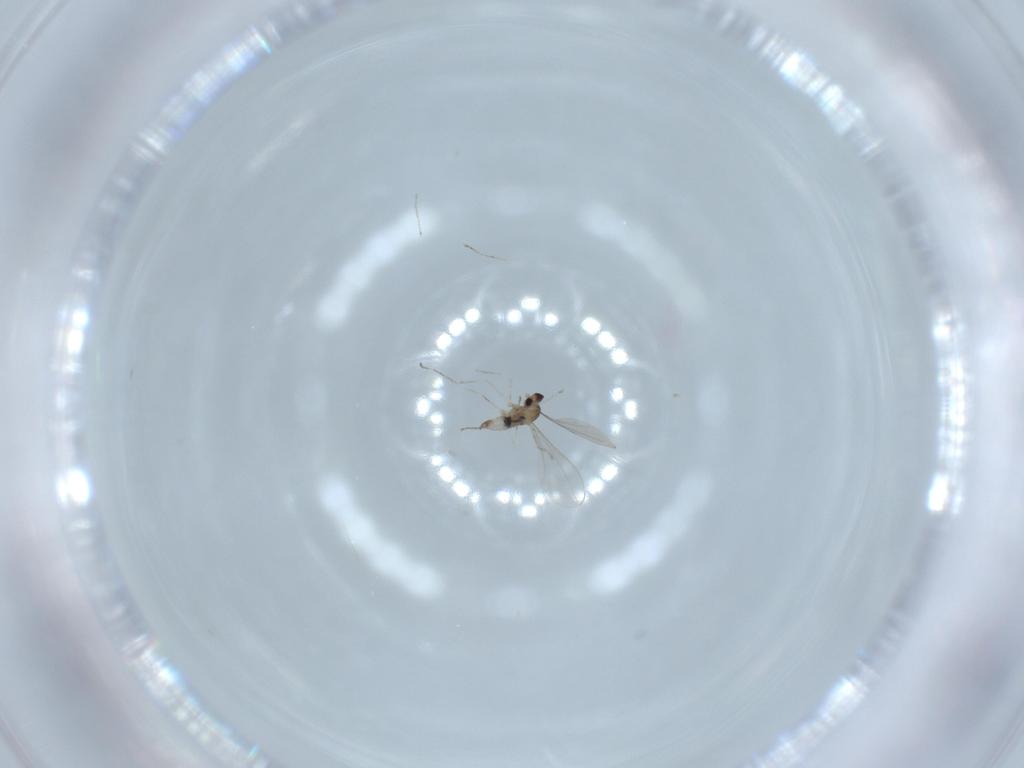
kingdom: Animalia
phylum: Arthropoda
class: Insecta
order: Diptera
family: Cecidomyiidae
